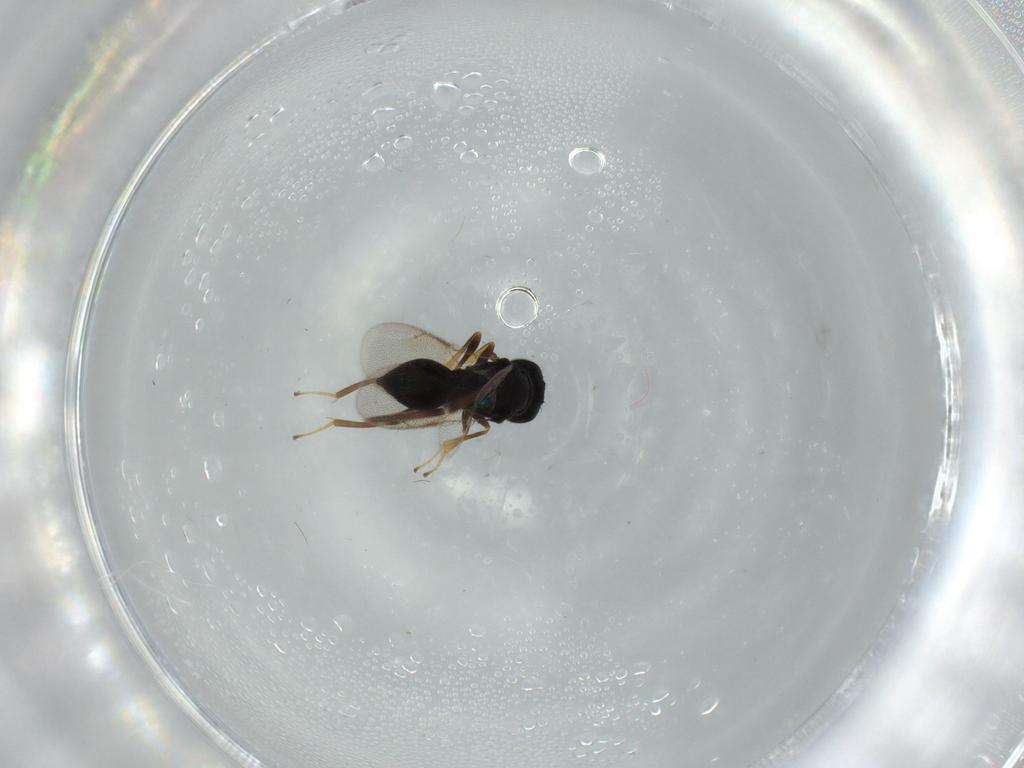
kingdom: Animalia
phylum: Arthropoda
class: Insecta
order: Hymenoptera
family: Pteromalidae
